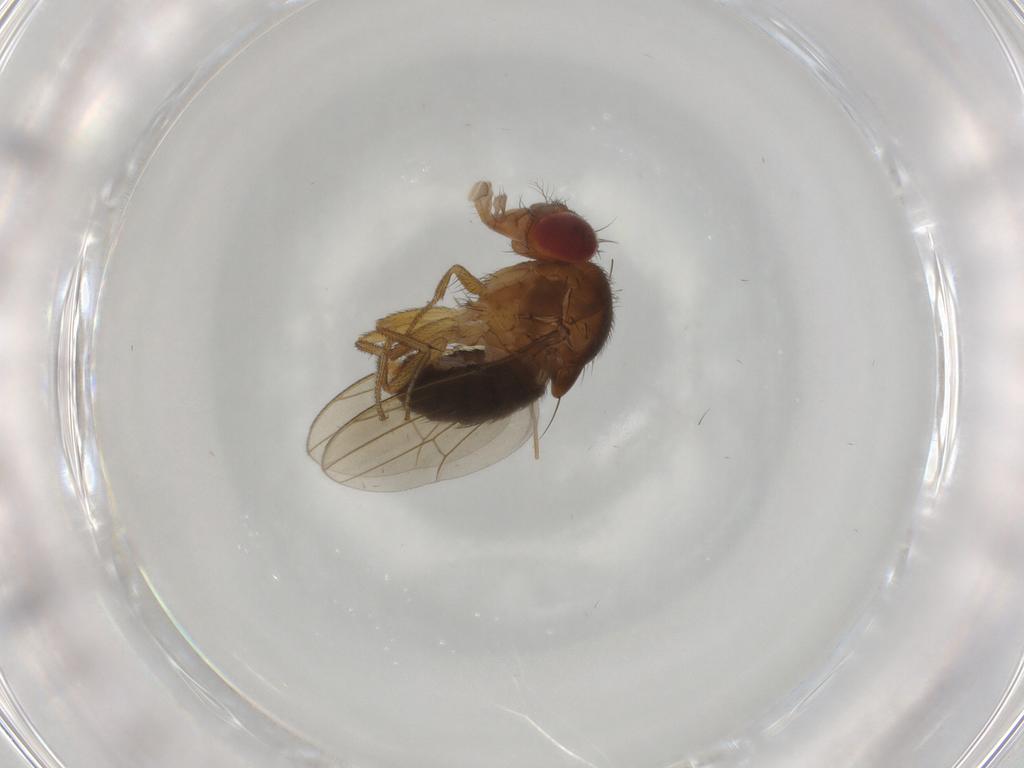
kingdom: Animalia
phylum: Arthropoda
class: Insecta
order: Diptera
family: Drosophilidae
